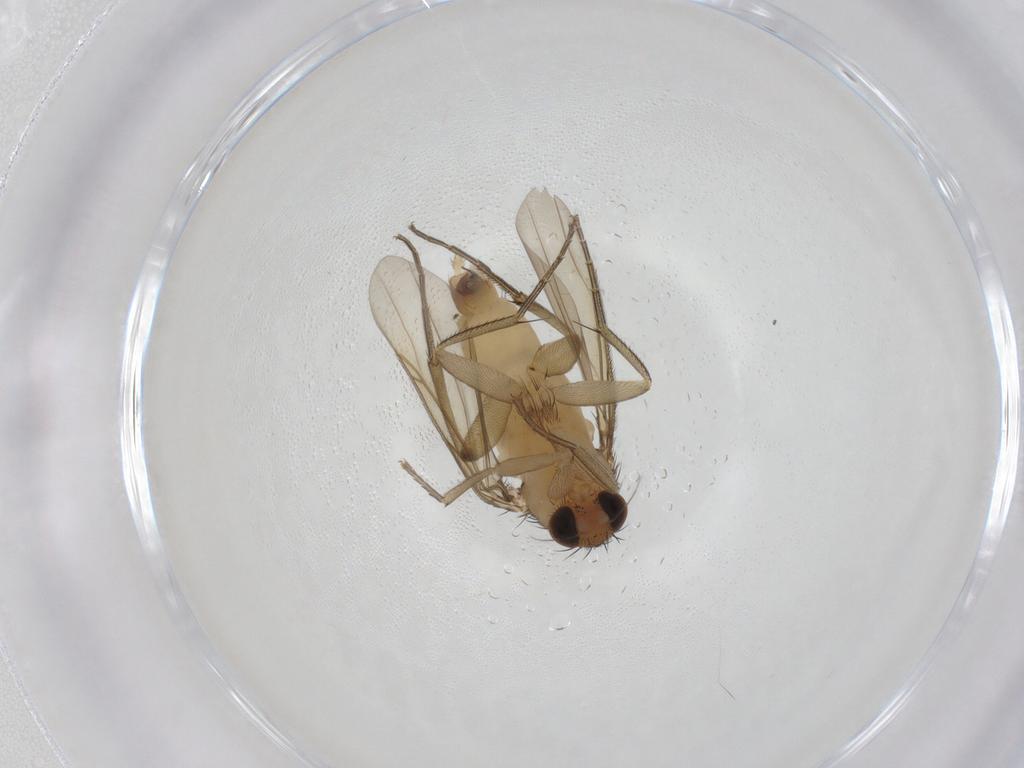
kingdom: Animalia
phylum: Arthropoda
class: Insecta
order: Diptera
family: Phoridae
